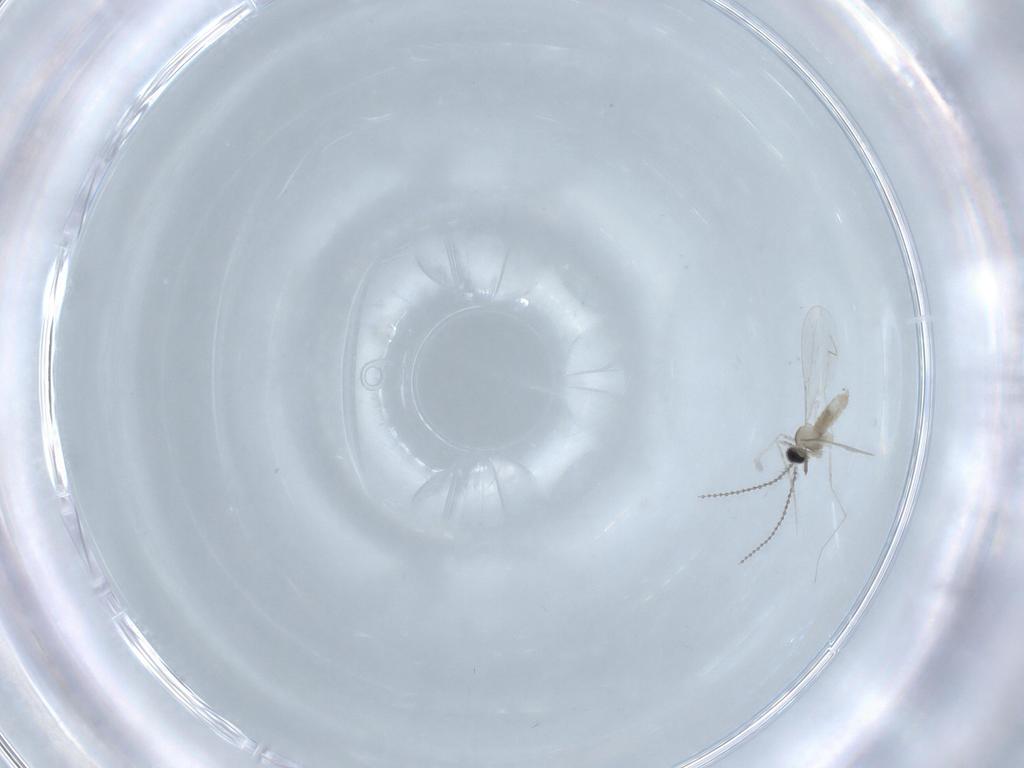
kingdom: Animalia
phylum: Arthropoda
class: Insecta
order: Diptera
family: Cecidomyiidae
